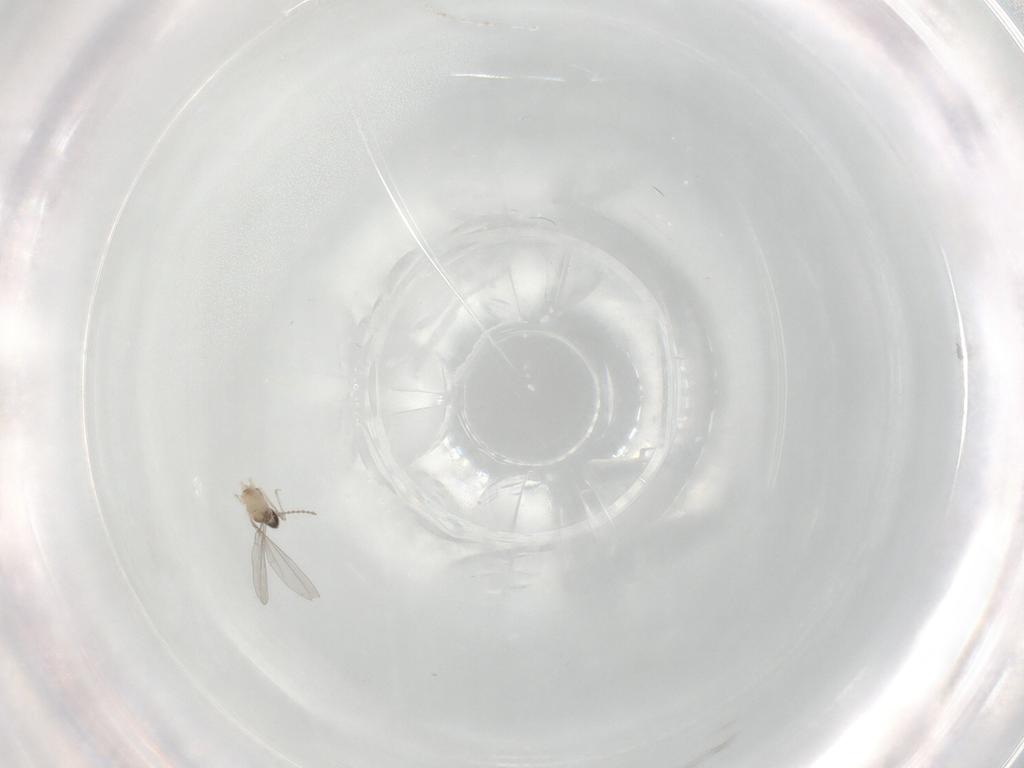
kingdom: Animalia
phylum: Arthropoda
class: Insecta
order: Diptera
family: Cecidomyiidae
